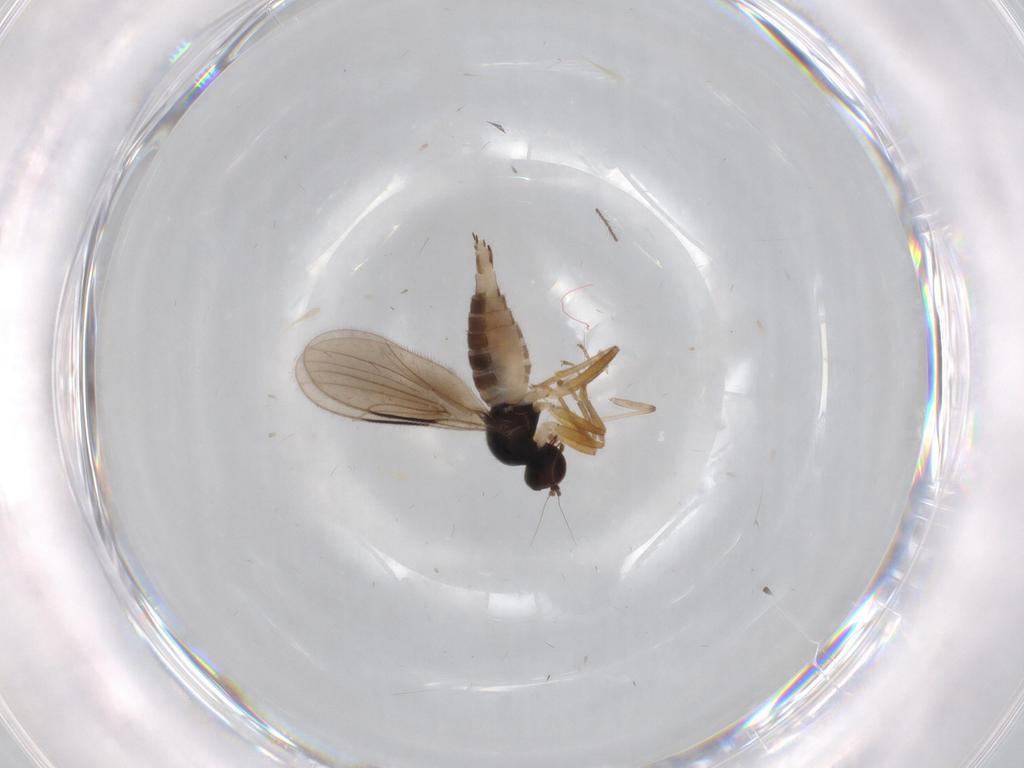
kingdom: Animalia
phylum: Arthropoda
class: Insecta
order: Diptera
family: Hybotidae
